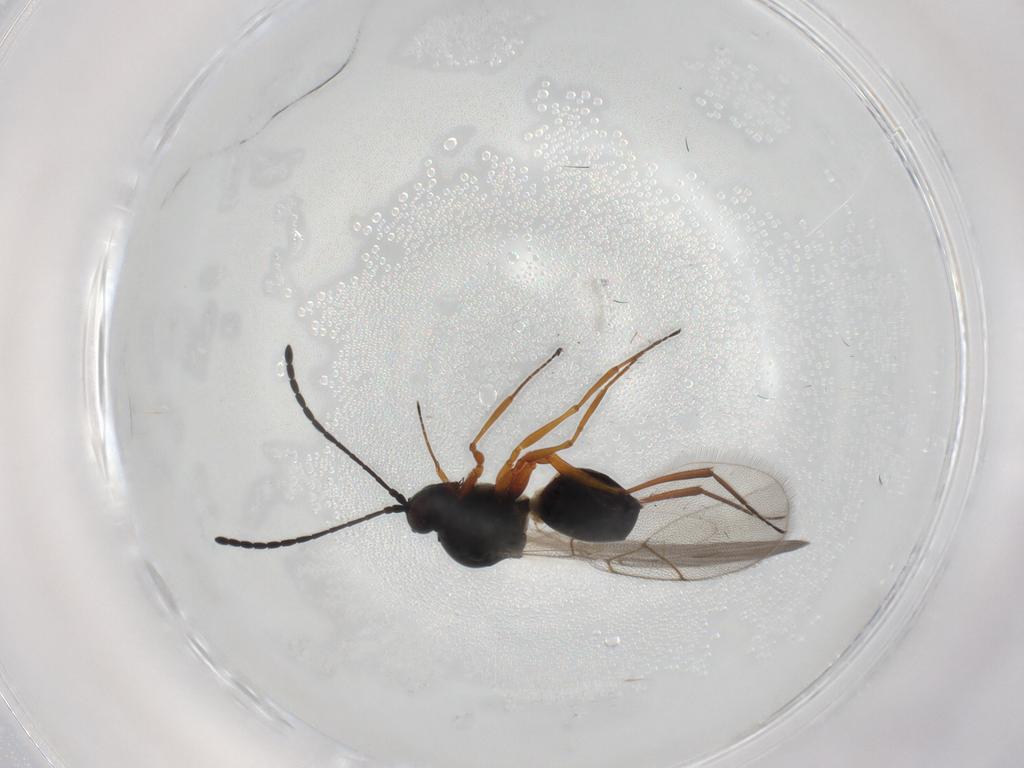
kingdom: Animalia
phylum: Arthropoda
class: Insecta
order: Hymenoptera
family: Figitidae
